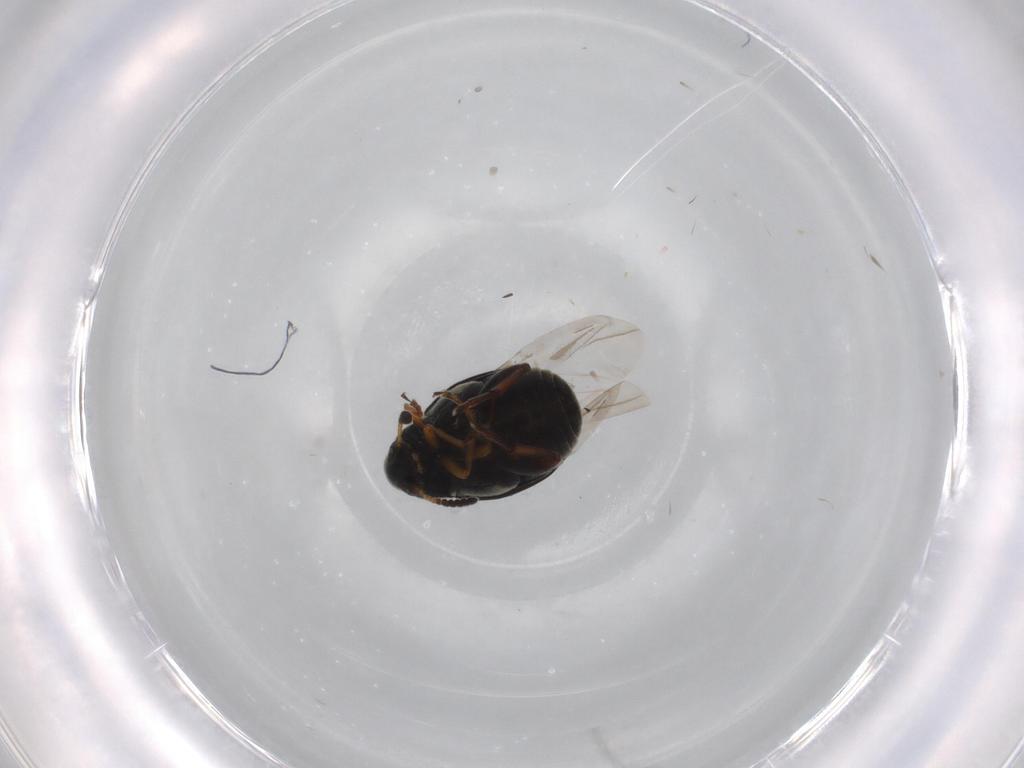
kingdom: Animalia
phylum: Arthropoda
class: Insecta
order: Coleoptera
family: Chrysomelidae
